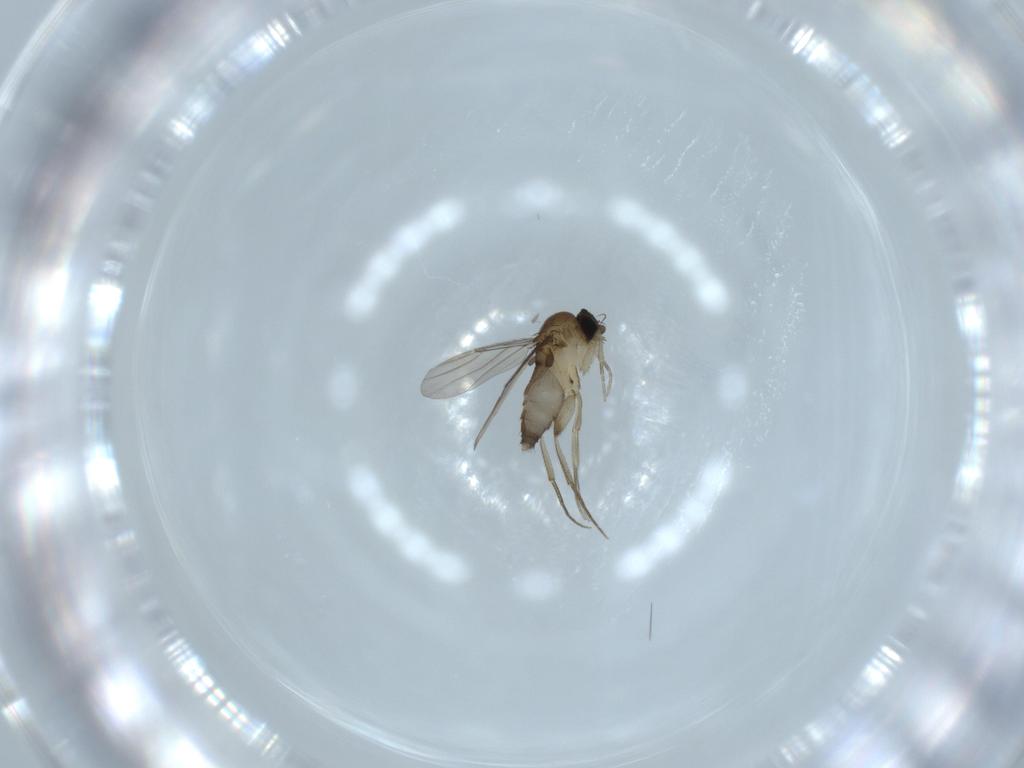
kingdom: Animalia
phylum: Arthropoda
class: Insecta
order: Diptera
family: Phoridae
